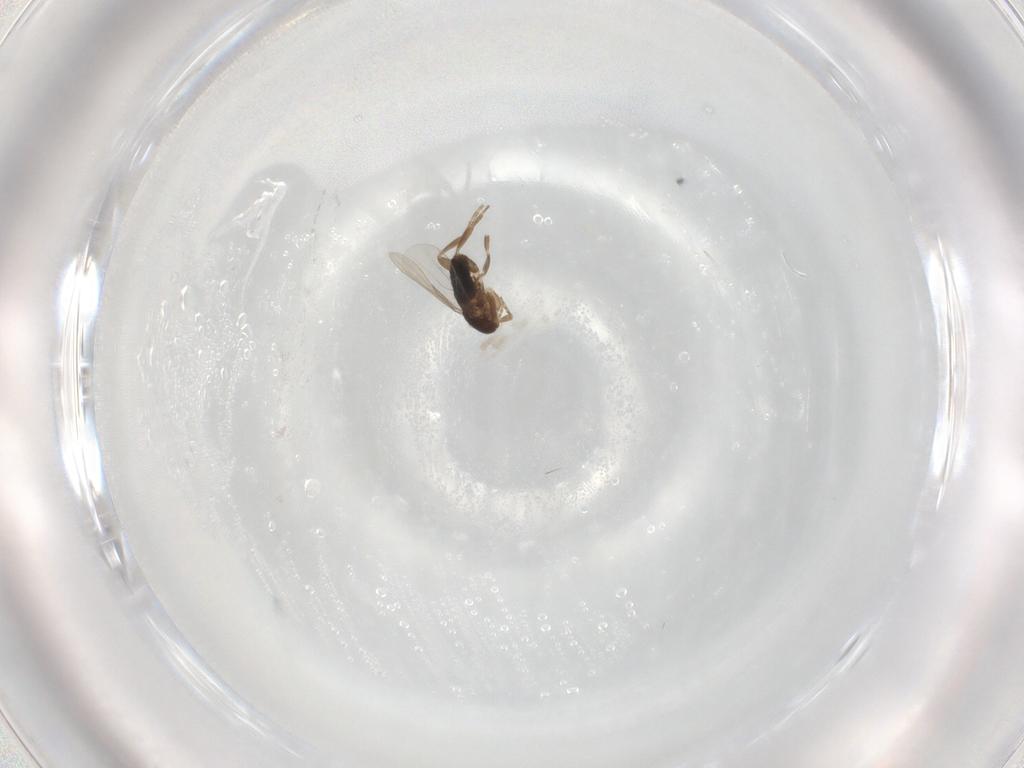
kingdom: Animalia
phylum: Arthropoda
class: Insecta
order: Diptera
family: Phoridae
